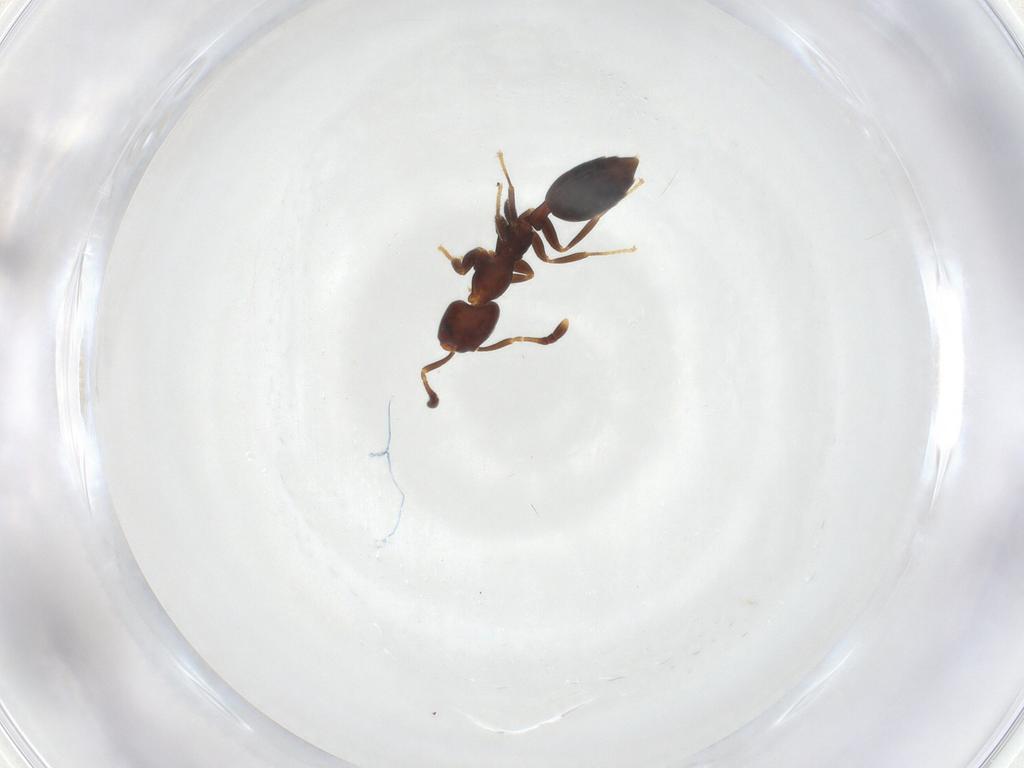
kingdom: Animalia
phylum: Arthropoda
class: Insecta
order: Hymenoptera
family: Formicidae
